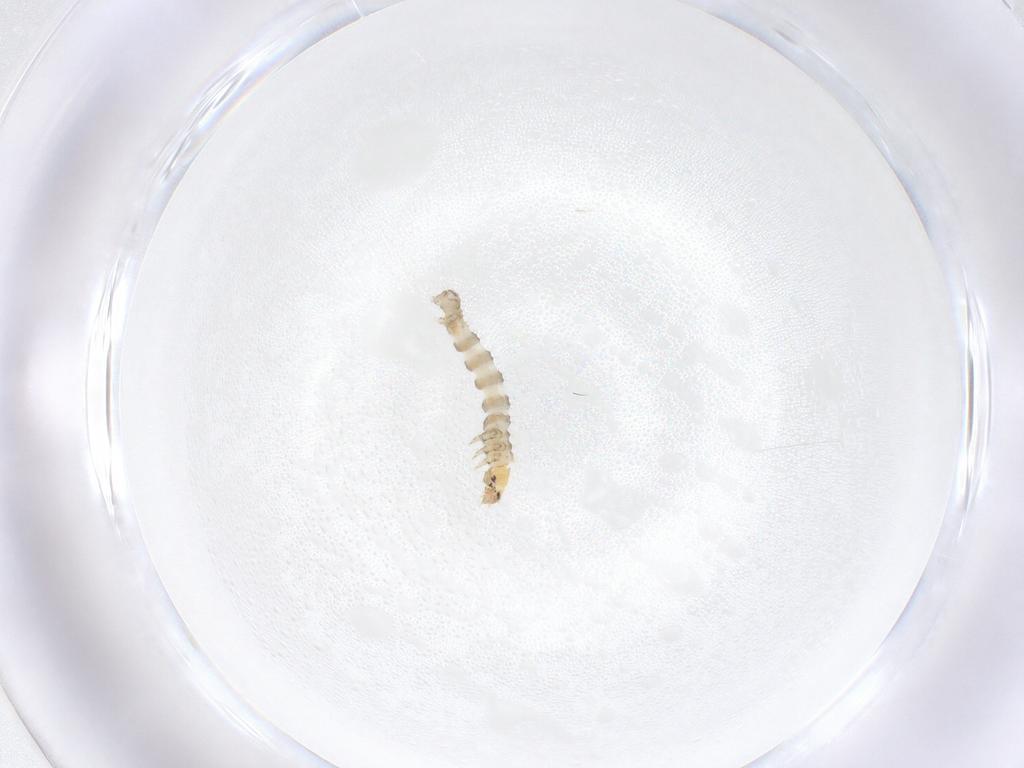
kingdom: Animalia
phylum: Arthropoda
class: Insecta
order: Lepidoptera
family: Geometridae
